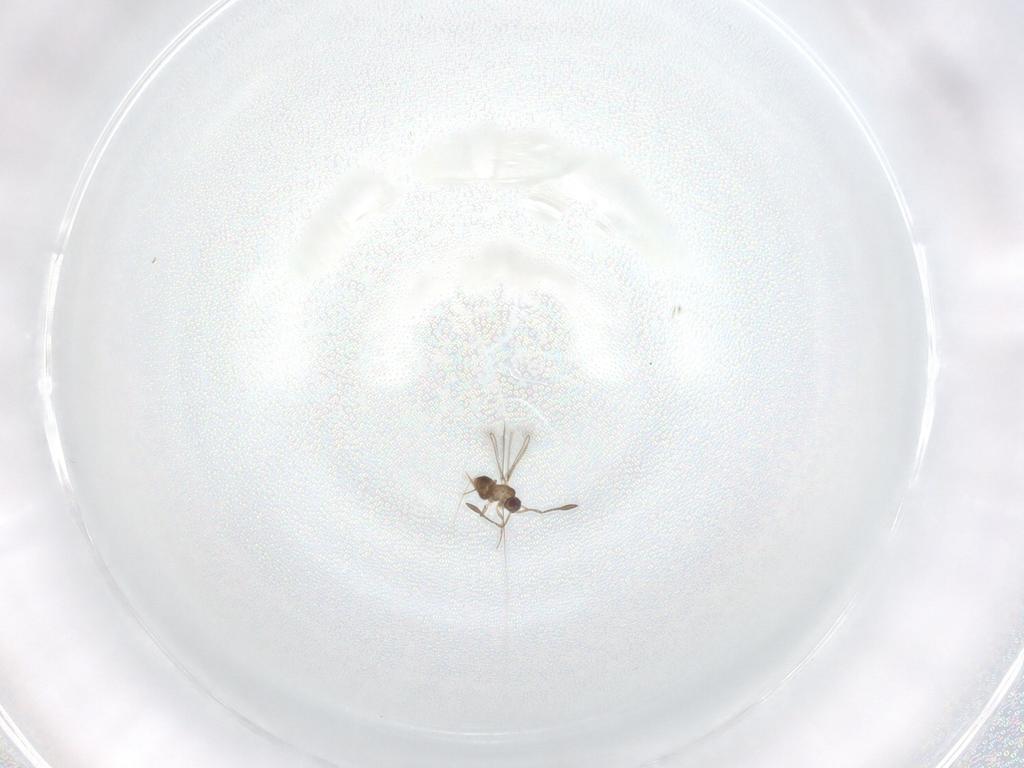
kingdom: Animalia
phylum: Arthropoda
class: Insecta
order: Hymenoptera
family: Mymaridae
